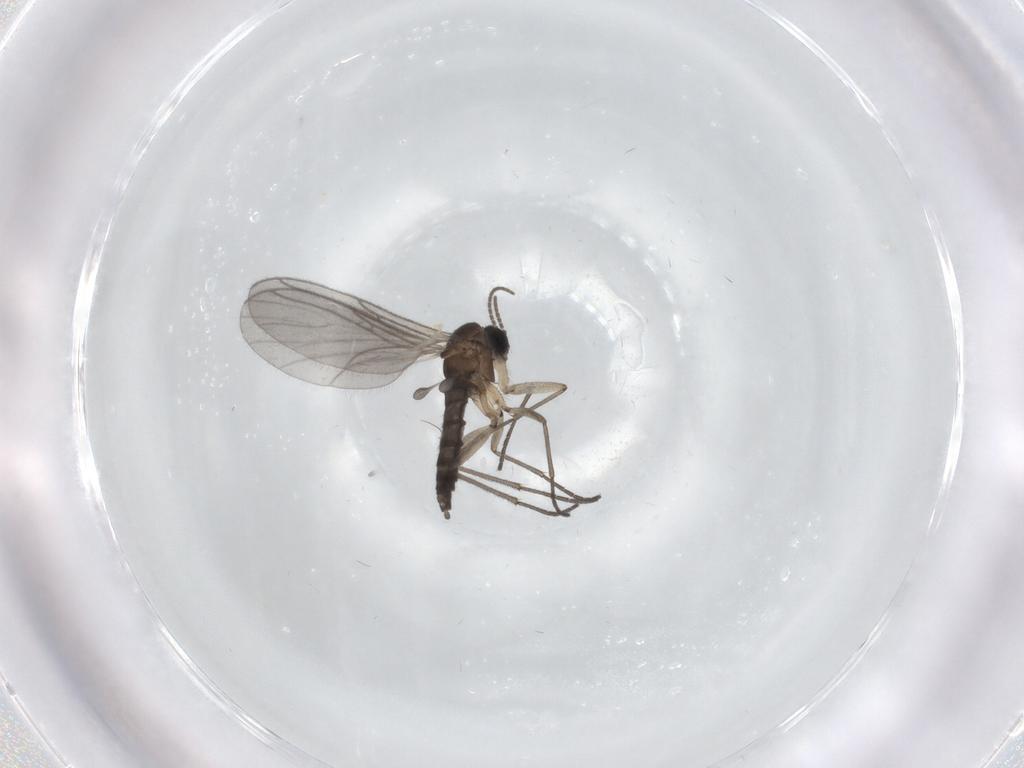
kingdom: Animalia
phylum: Arthropoda
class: Insecta
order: Diptera
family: Sciaridae
